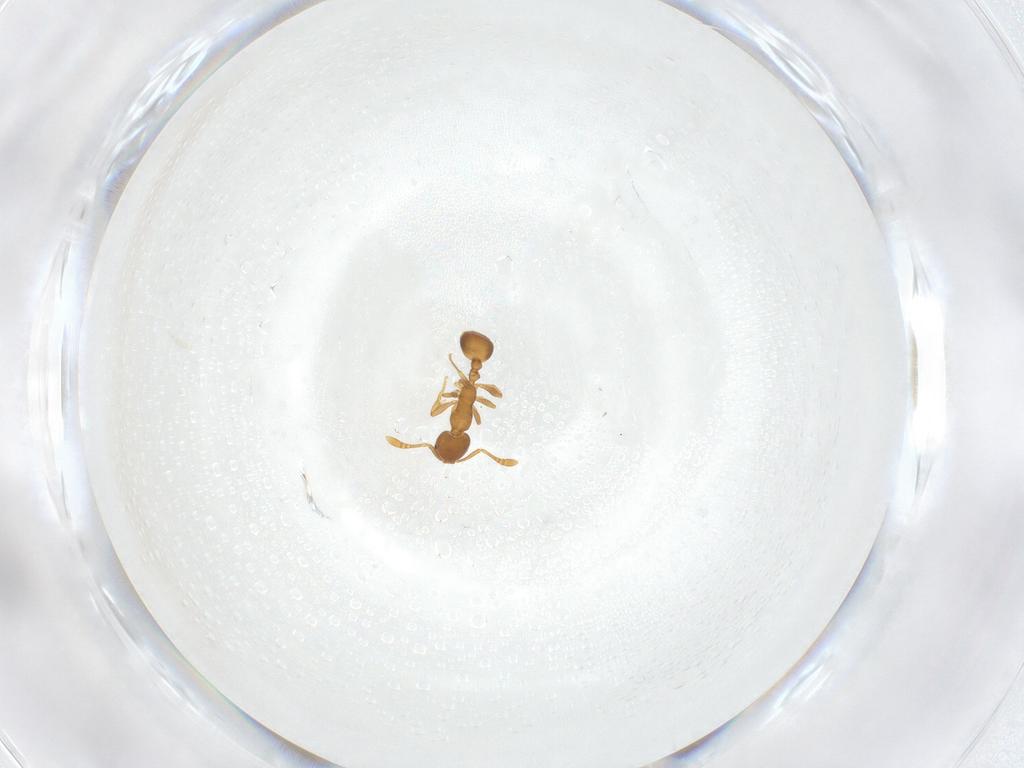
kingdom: Animalia
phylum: Arthropoda
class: Insecta
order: Hymenoptera
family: Formicidae
